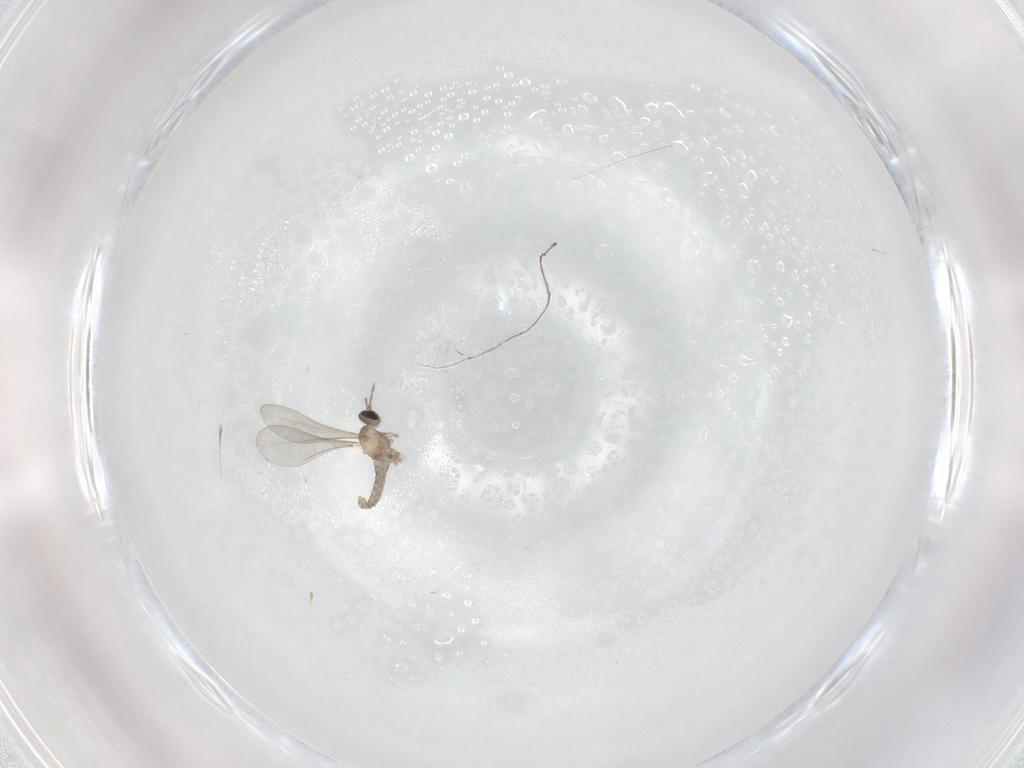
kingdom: Animalia
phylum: Arthropoda
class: Insecta
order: Diptera
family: Cecidomyiidae
